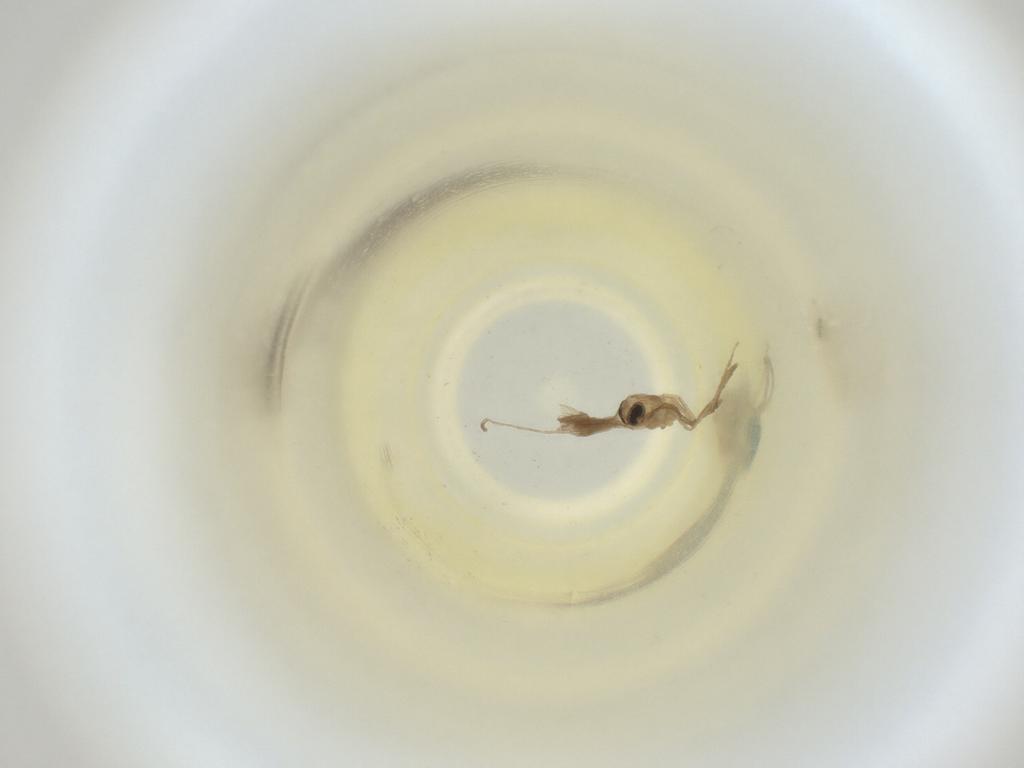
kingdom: Animalia
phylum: Arthropoda
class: Insecta
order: Diptera
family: Cecidomyiidae
